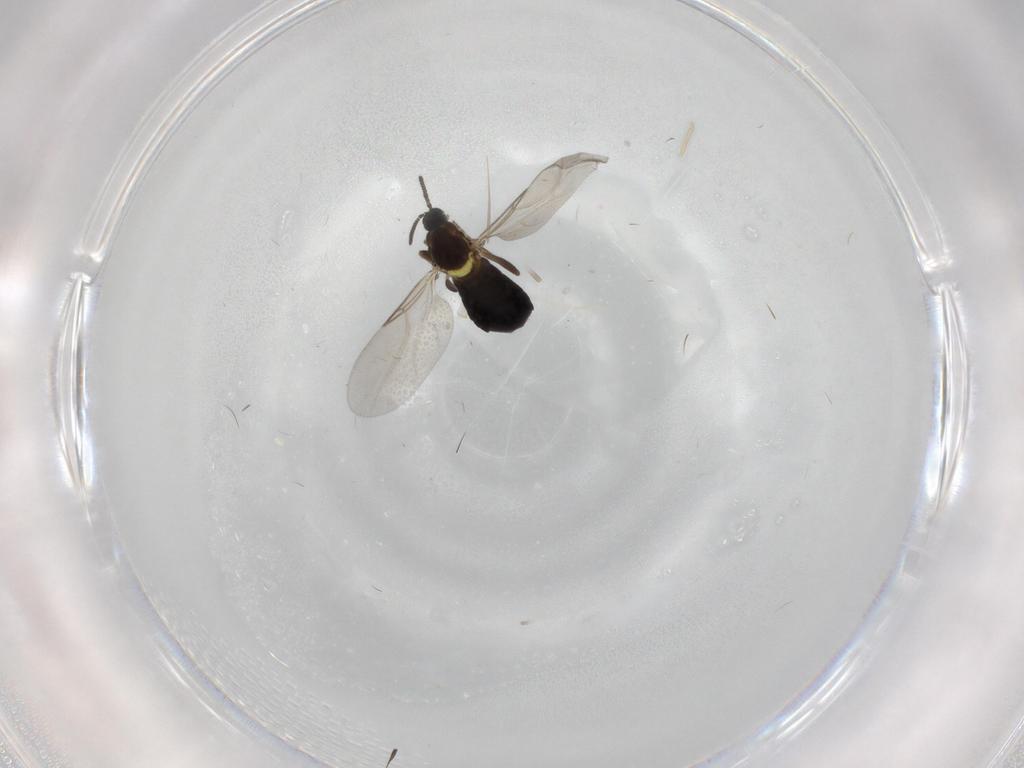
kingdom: Animalia
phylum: Arthropoda
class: Insecta
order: Diptera
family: Scatopsidae
